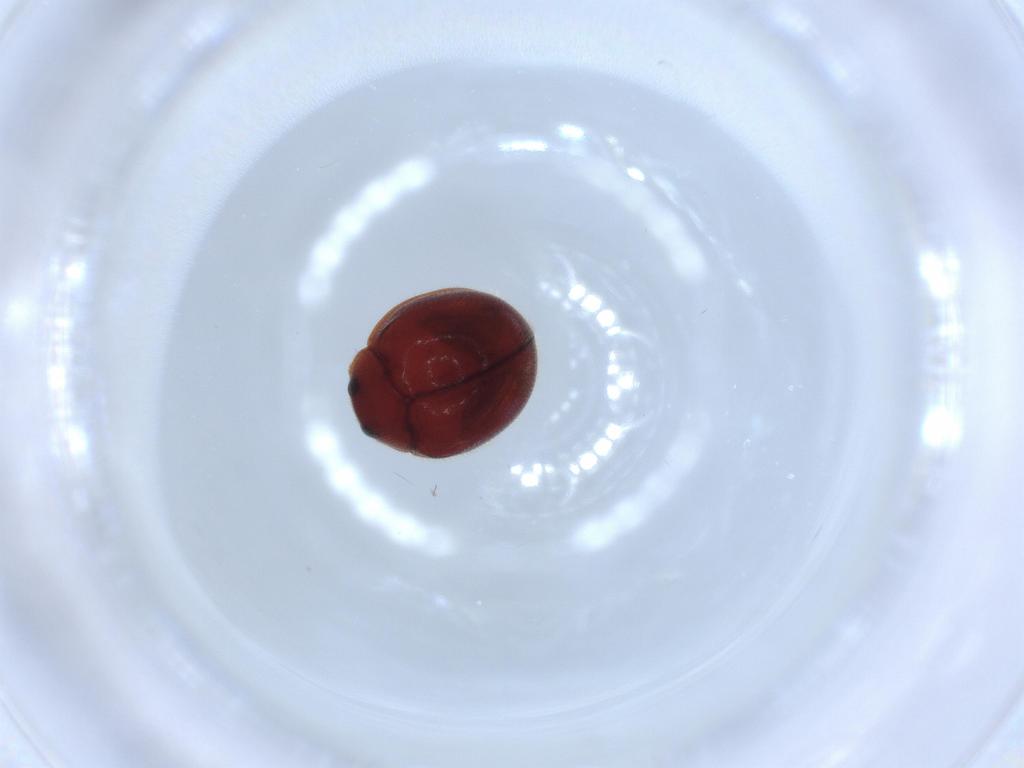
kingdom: Animalia
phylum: Arthropoda
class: Insecta
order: Coleoptera
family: Coccinellidae
